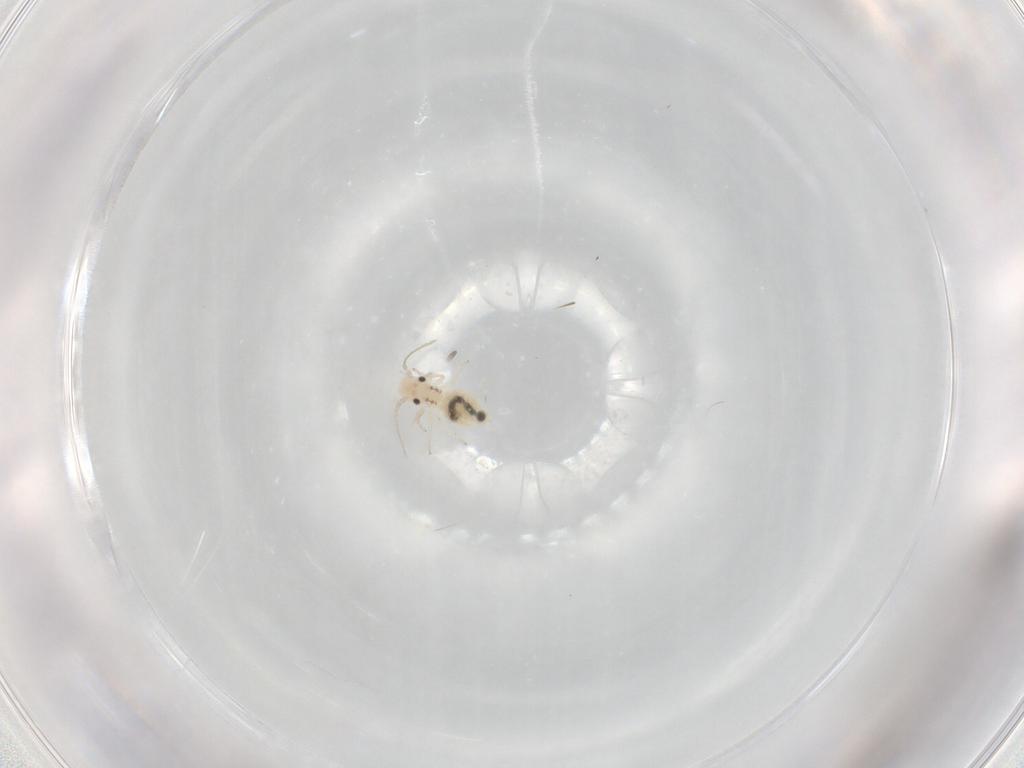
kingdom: Animalia
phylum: Arthropoda
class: Insecta
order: Psocodea
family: Caeciliusidae
